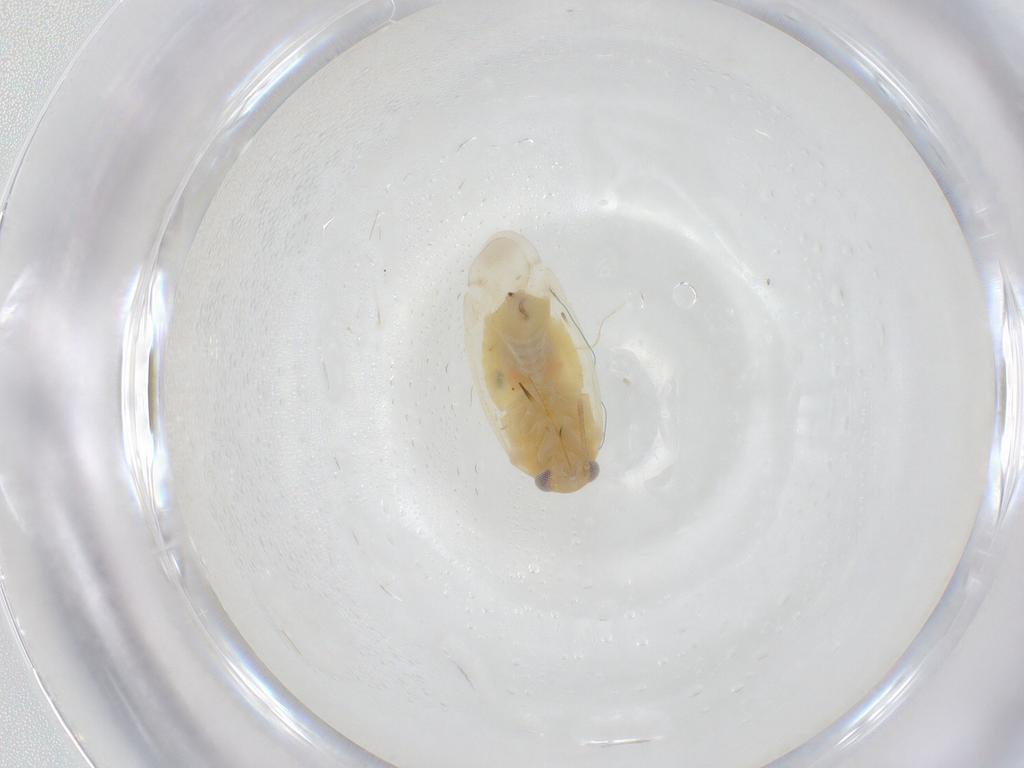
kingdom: Animalia
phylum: Arthropoda
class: Insecta
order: Hemiptera
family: Miridae
